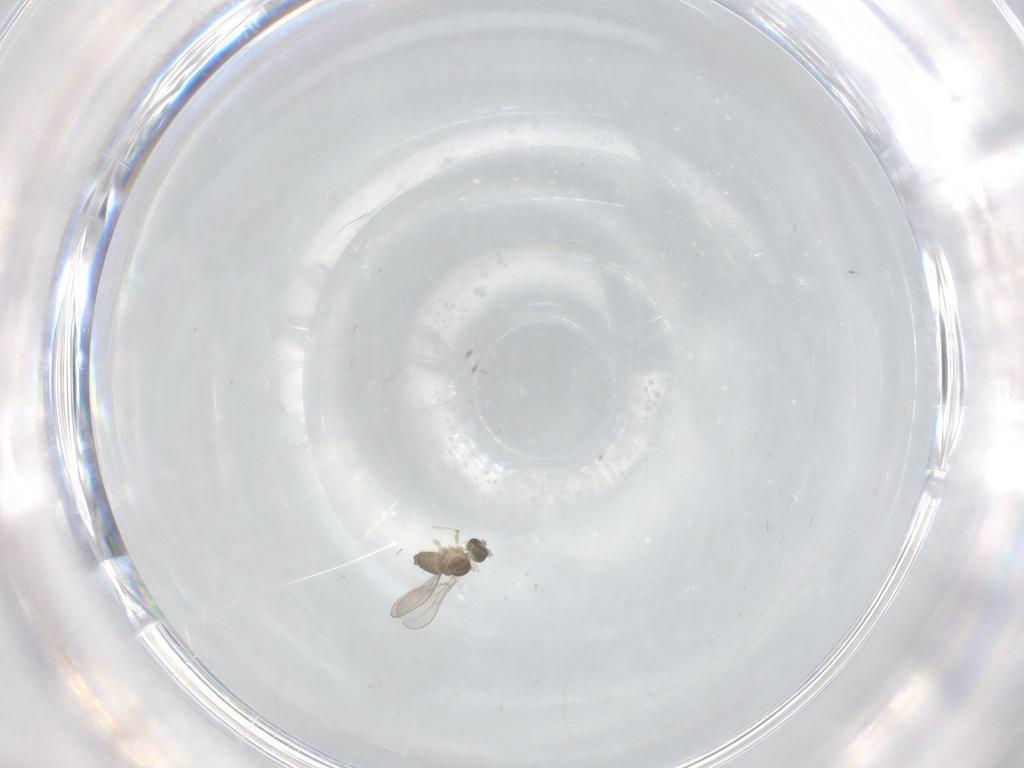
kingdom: Animalia
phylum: Arthropoda
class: Insecta
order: Diptera
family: Cecidomyiidae
